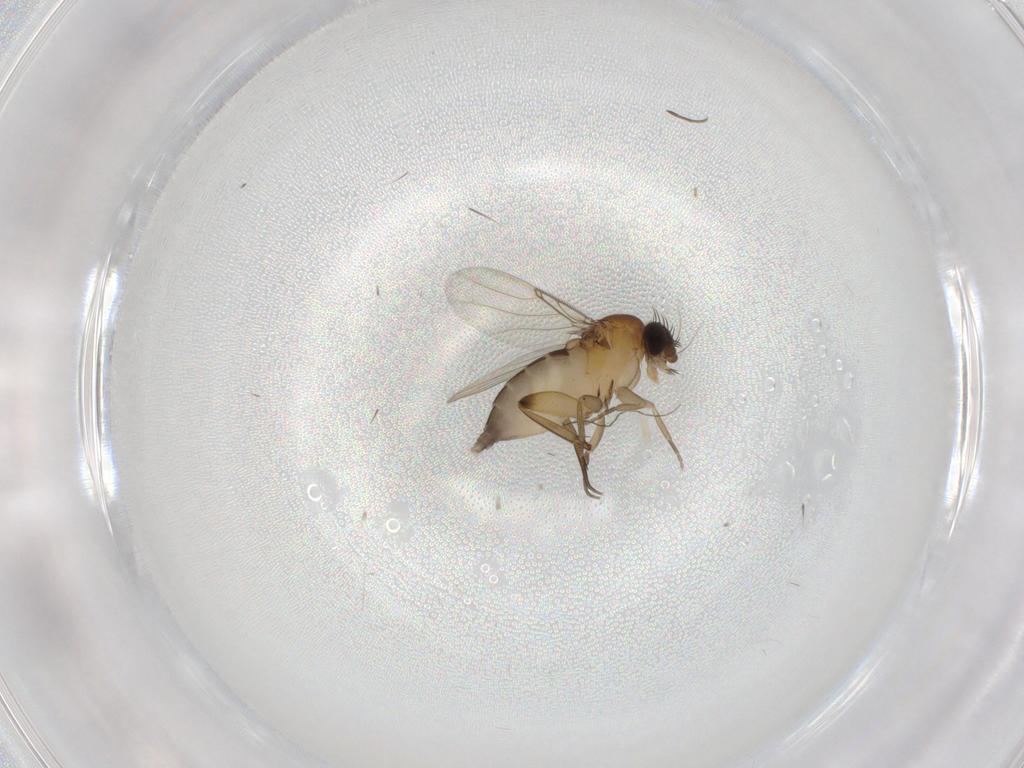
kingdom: Animalia
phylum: Arthropoda
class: Insecta
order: Diptera
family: Phoridae
